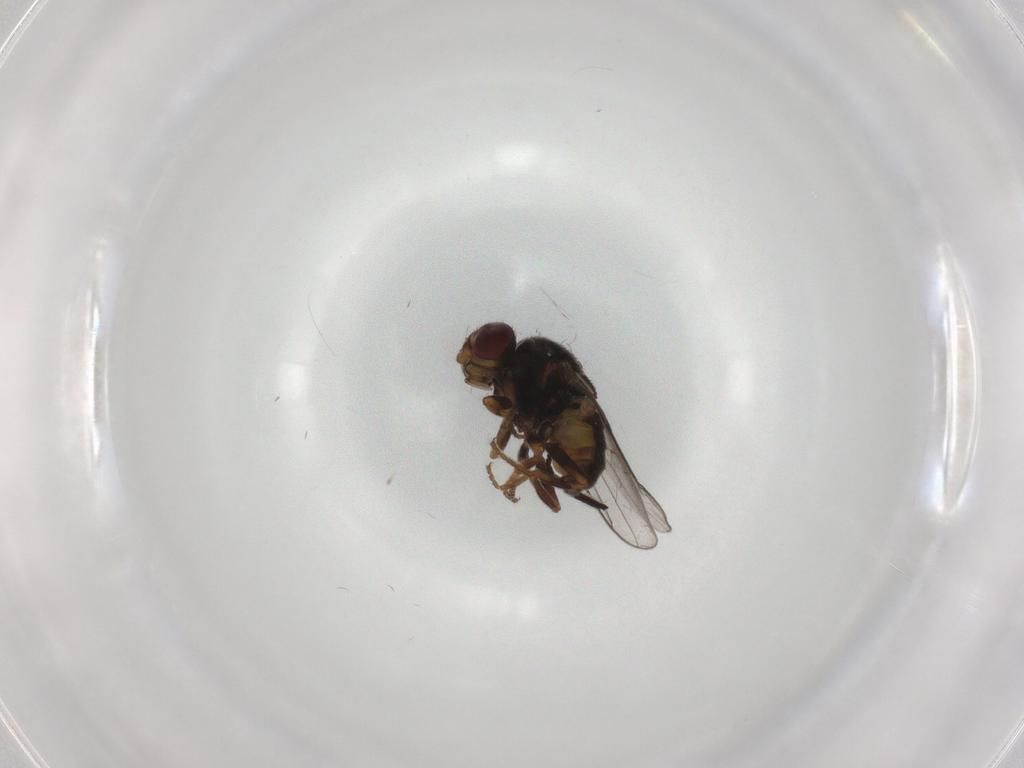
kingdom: Animalia
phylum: Arthropoda
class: Insecta
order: Diptera
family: Chloropidae
